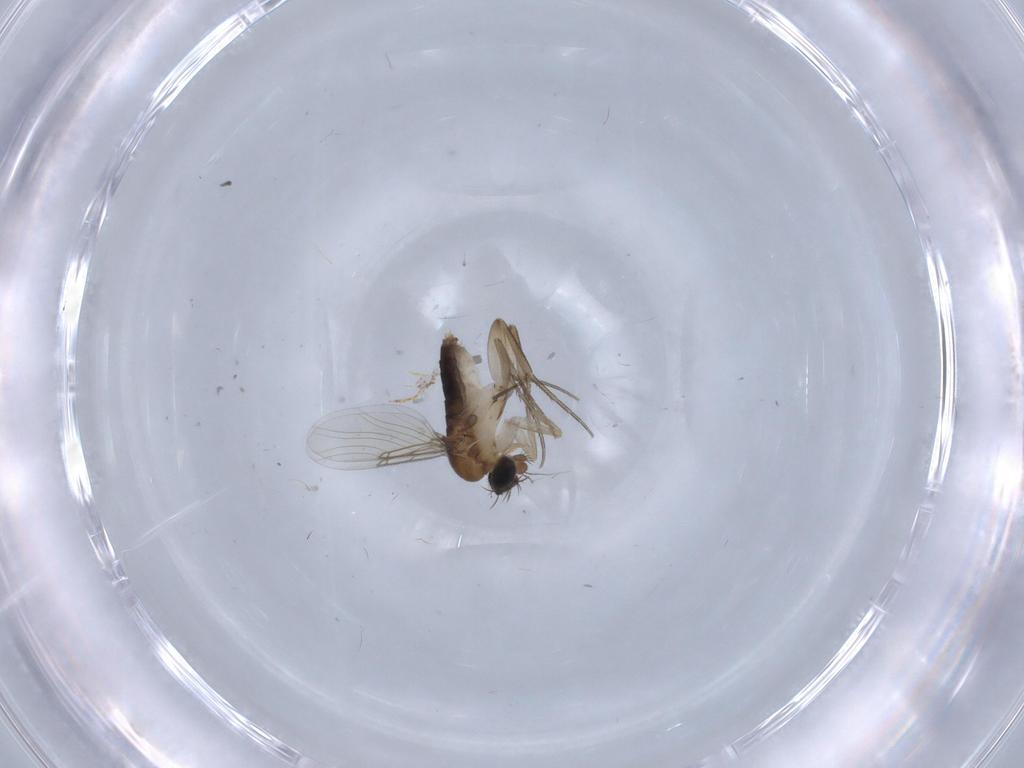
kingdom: Animalia
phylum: Arthropoda
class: Insecta
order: Diptera
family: Phoridae
